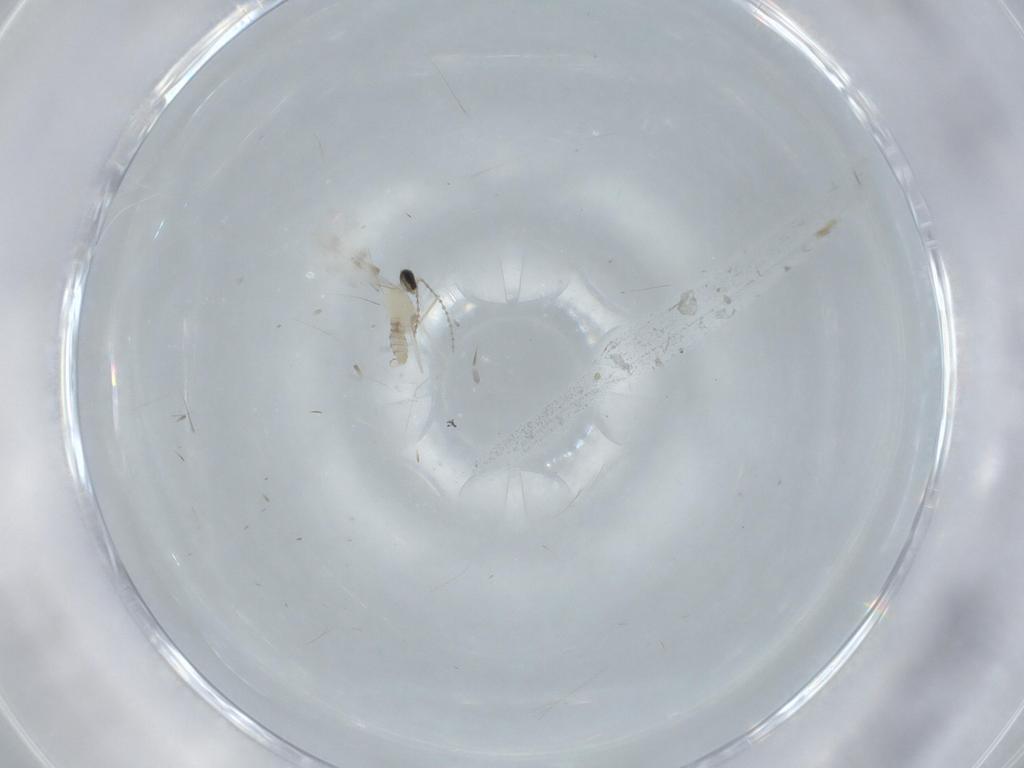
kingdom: Animalia
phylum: Arthropoda
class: Insecta
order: Diptera
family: Cecidomyiidae
